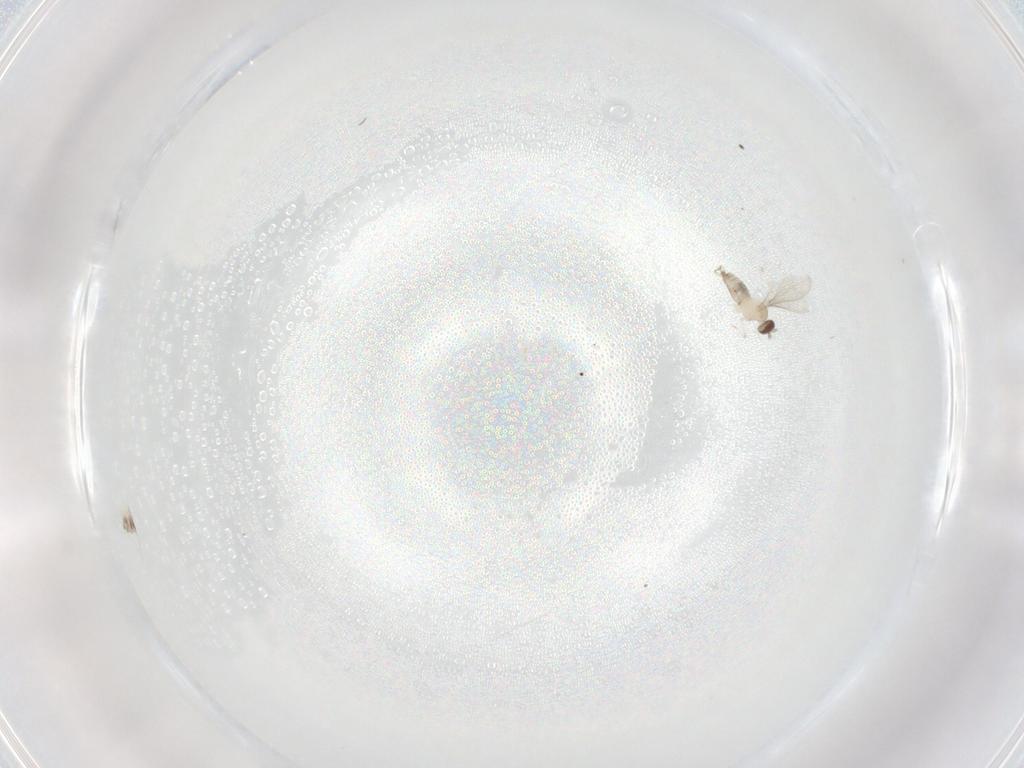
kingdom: Animalia
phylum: Arthropoda
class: Insecta
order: Diptera
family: Cecidomyiidae
